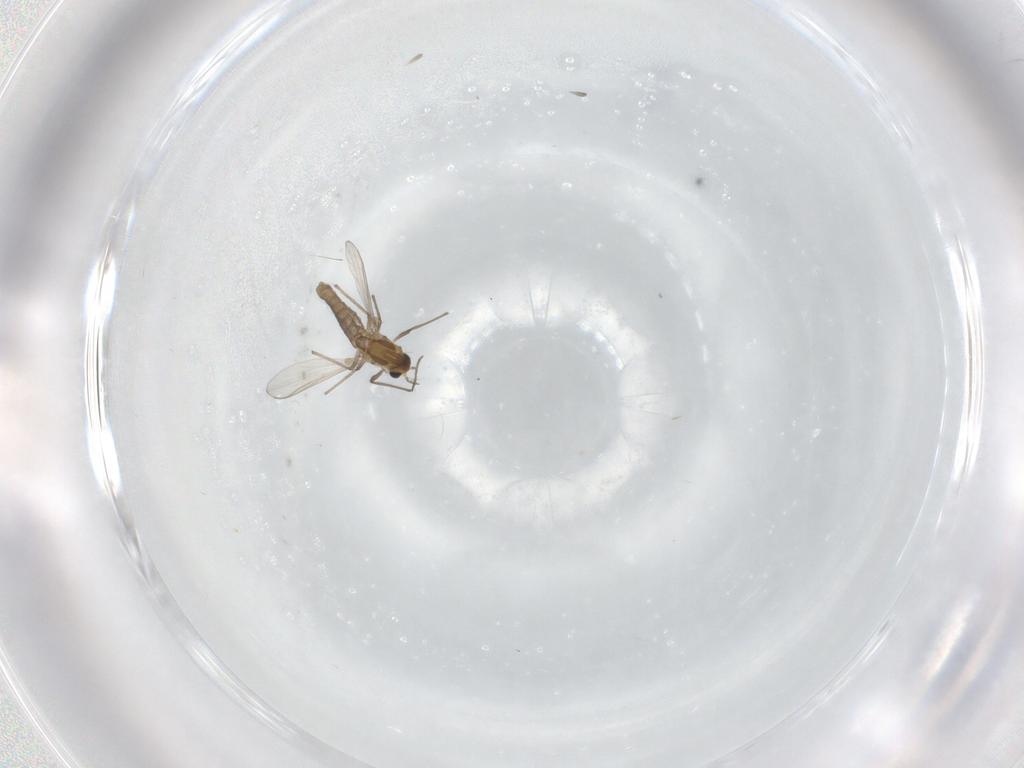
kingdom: Animalia
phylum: Arthropoda
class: Insecta
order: Diptera
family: Chironomidae
